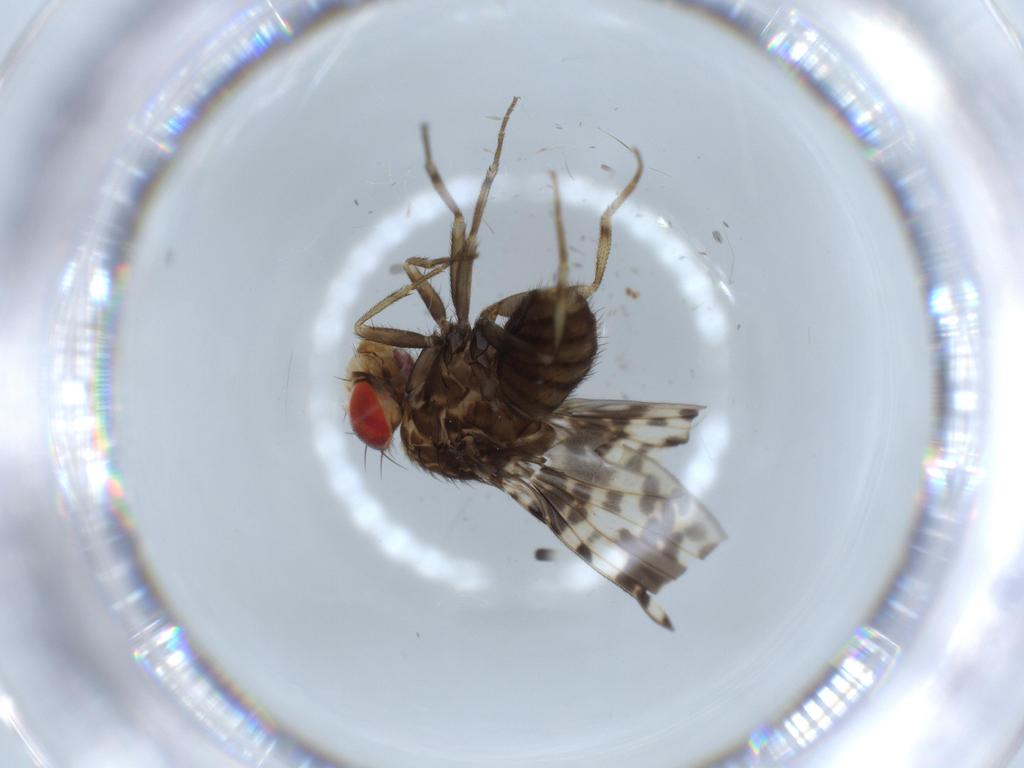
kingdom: Animalia
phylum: Arthropoda
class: Insecta
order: Diptera
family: Drosophilidae
